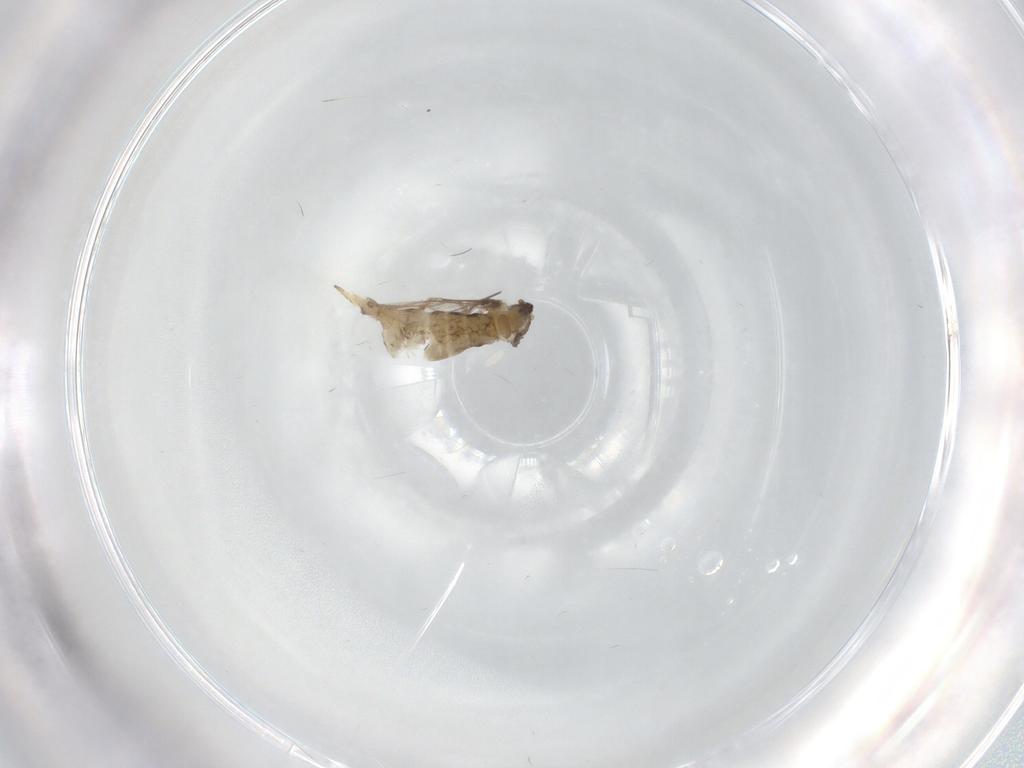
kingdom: Animalia
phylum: Arthropoda
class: Insecta
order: Diptera
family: Cecidomyiidae
